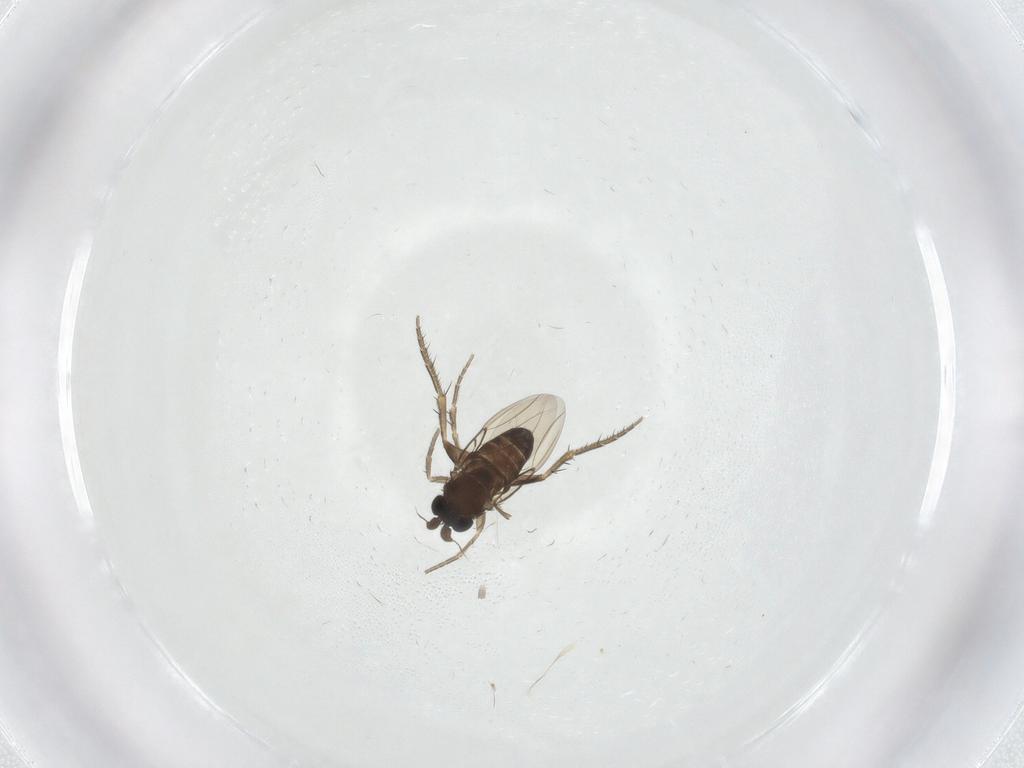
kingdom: Animalia
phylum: Arthropoda
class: Insecta
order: Diptera
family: Phoridae
